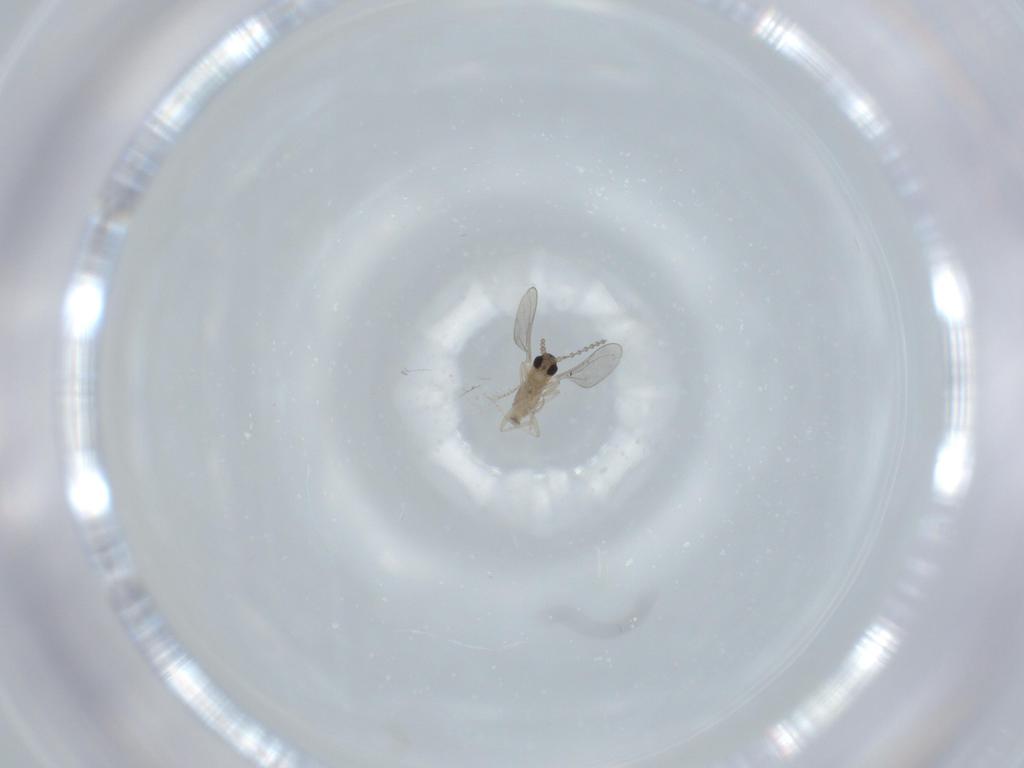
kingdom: Animalia
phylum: Arthropoda
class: Insecta
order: Diptera
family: Cecidomyiidae
